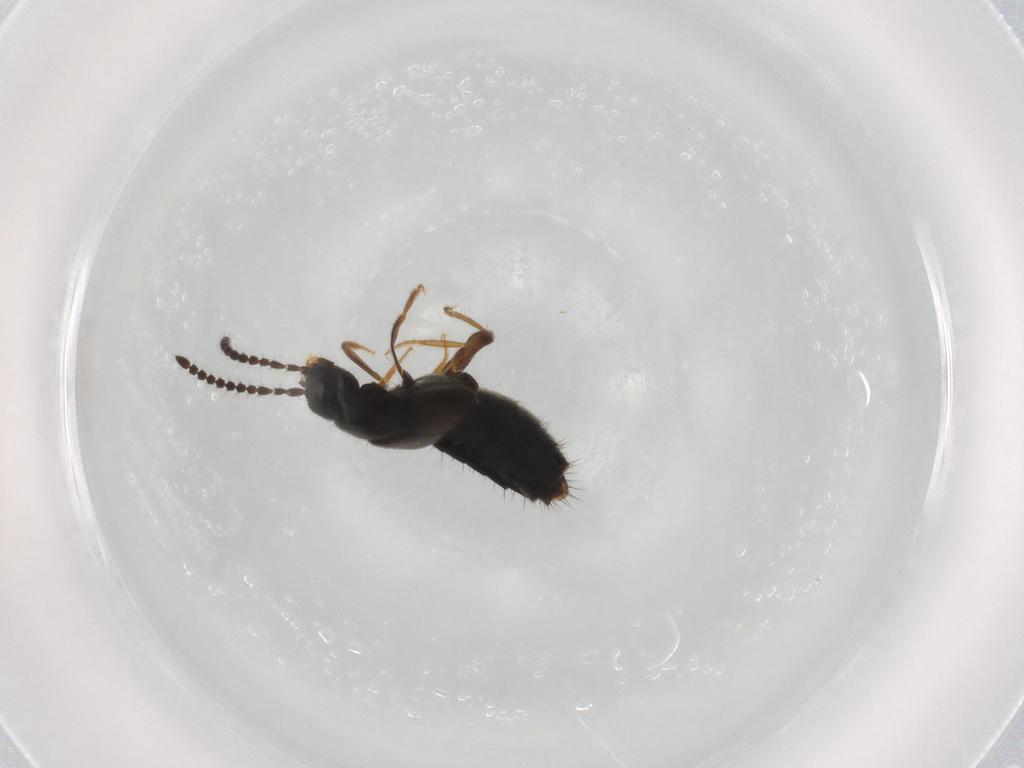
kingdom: Animalia
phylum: Arthropoda
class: Insecta
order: Coleoptera
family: Staphylinidae
